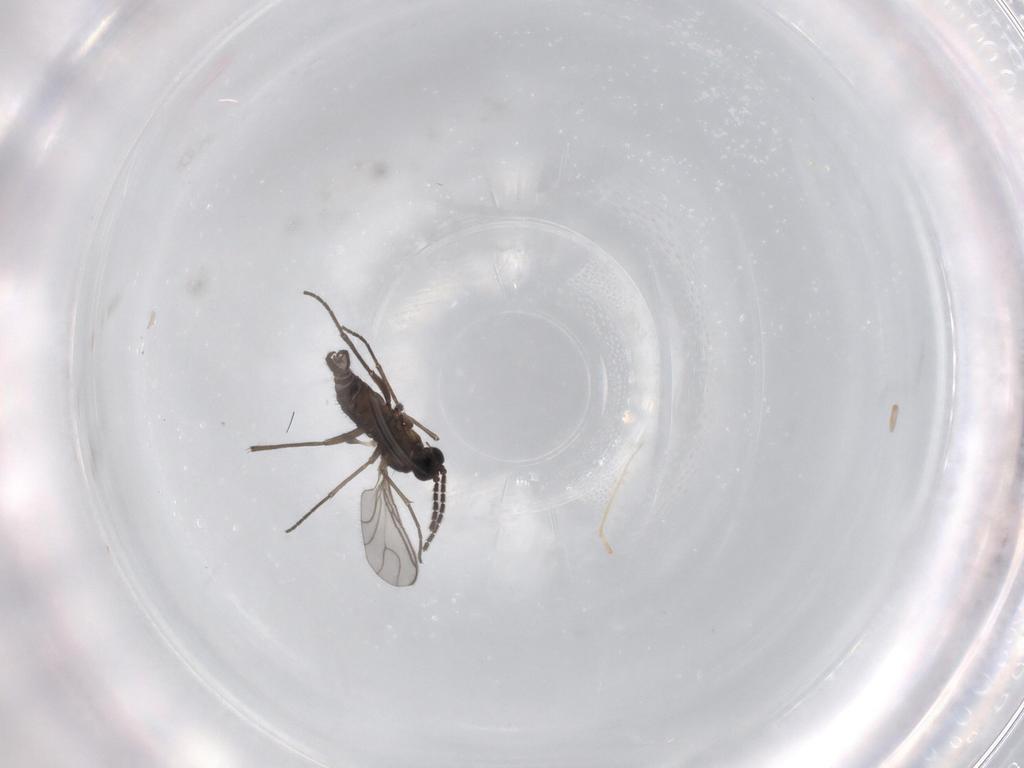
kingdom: Animalia
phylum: Arthropoda
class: Insecta
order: Diptera
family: Sciaridae
